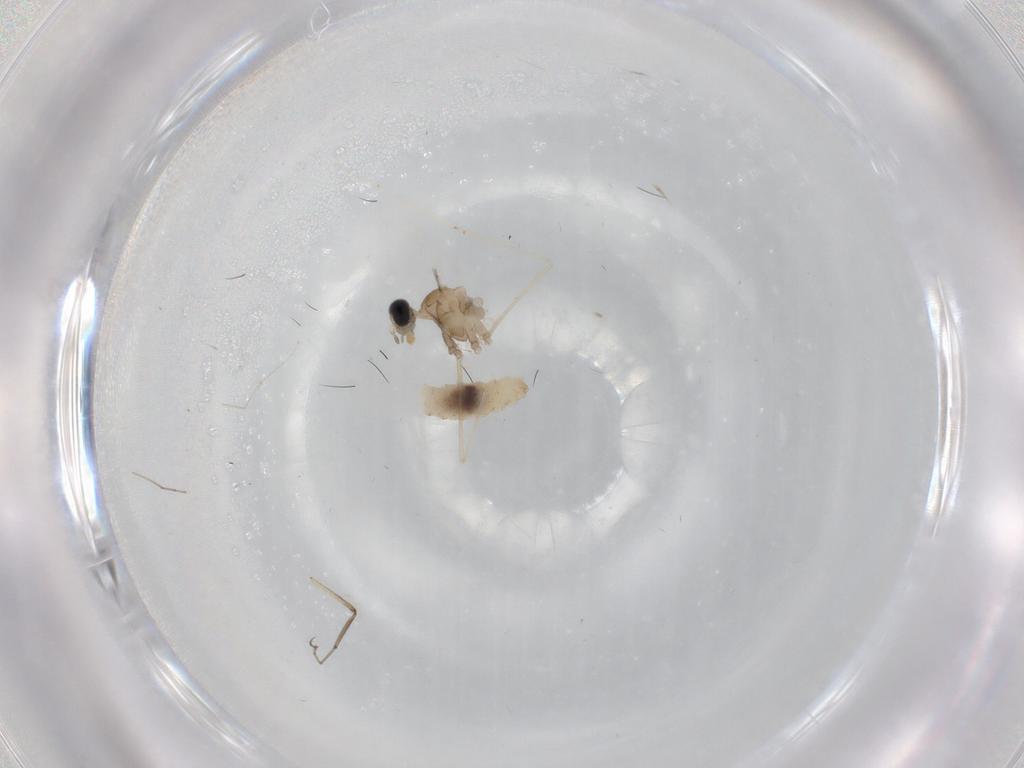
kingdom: Animalia
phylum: Arthropoda
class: Insecta
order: Diptera
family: Phoridae
